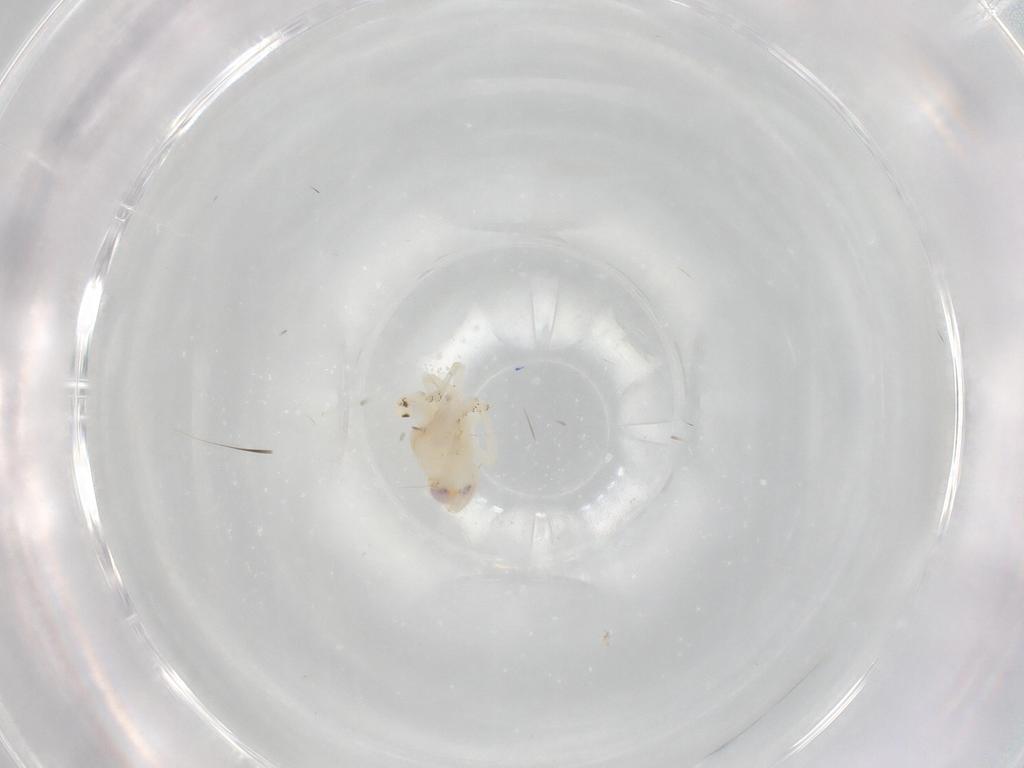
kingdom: Animalia
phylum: Arthropoda
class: Insecta
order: Hemiptera
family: Nogodinidae
